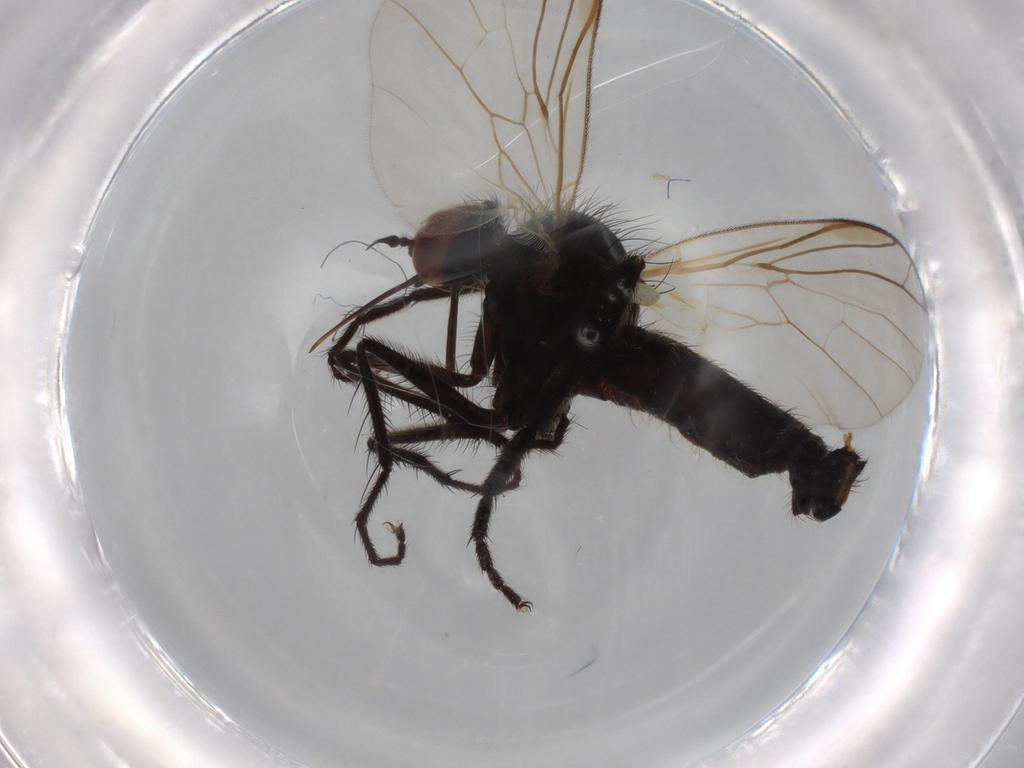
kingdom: Animalia
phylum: Arthropoda
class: Insecta
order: Diptera
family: Empididae
